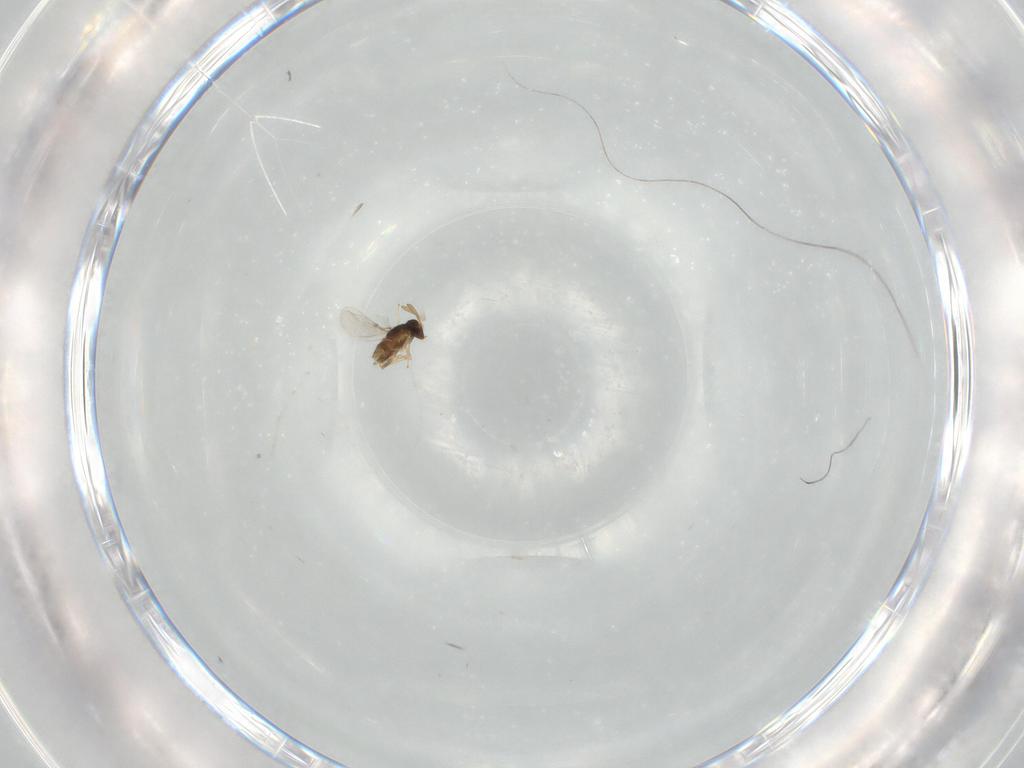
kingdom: Animalia
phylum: Arthropoda
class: Insecta
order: Hymenoptera
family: Encyrtidae
